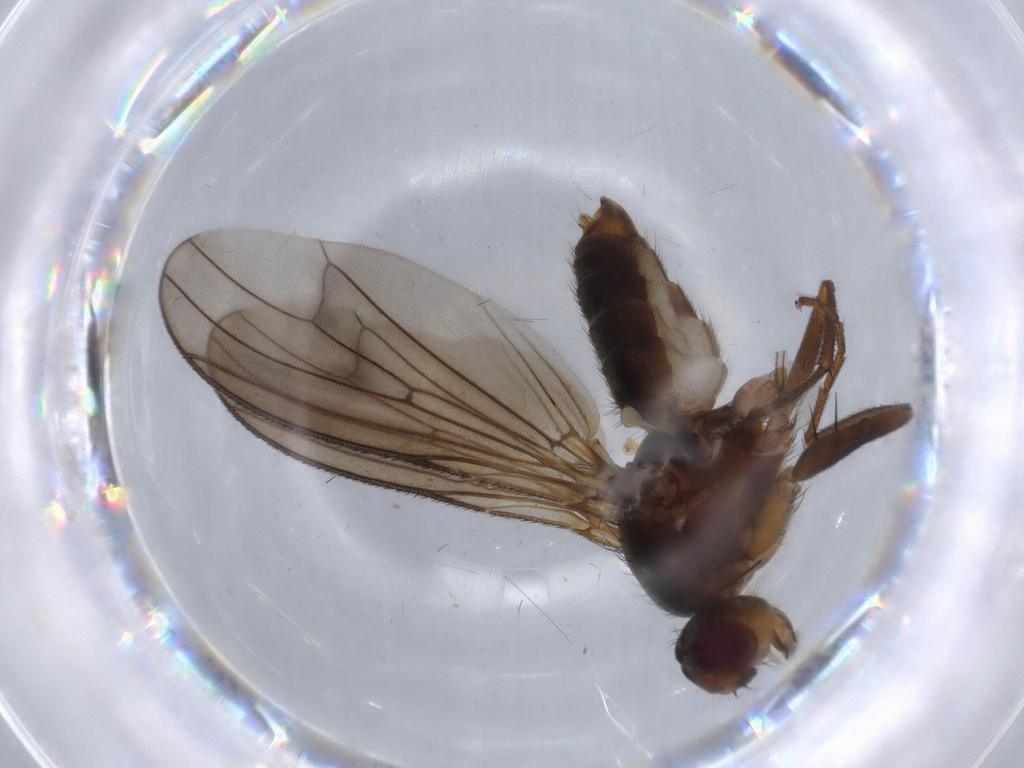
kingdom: Animalia
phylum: Arthropoda
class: Insecta
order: Diptera
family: Scathophagidae
